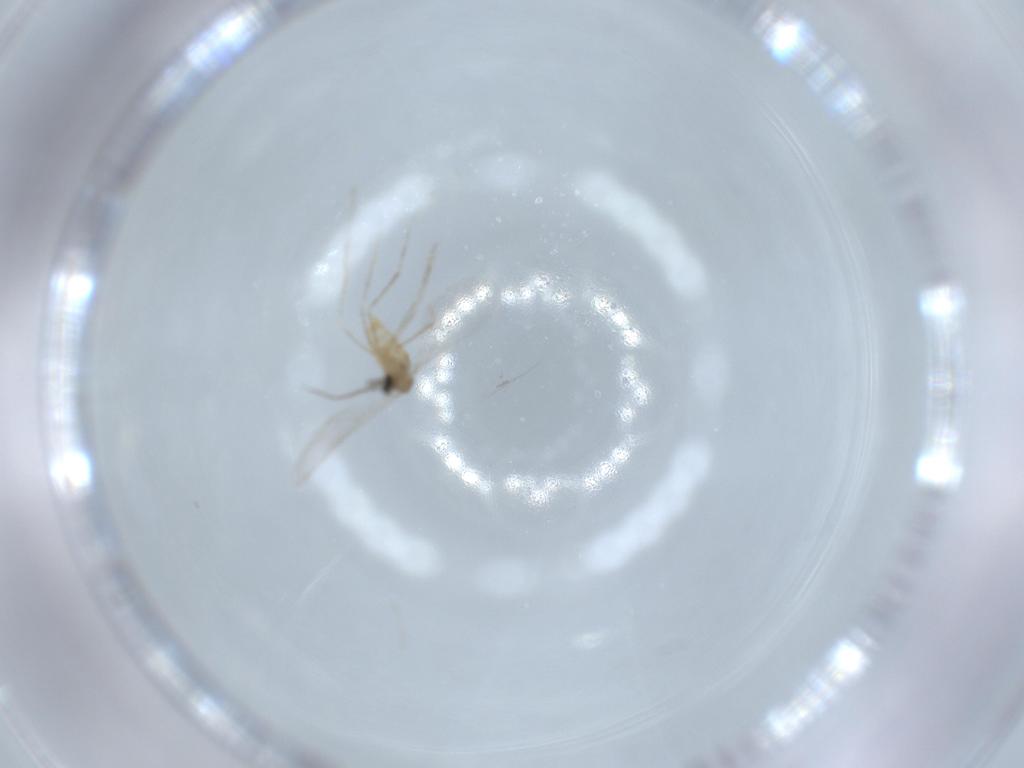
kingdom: Animalia
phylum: Arthropoda
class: Insecta
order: Diptera
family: Cecidomyiidae
